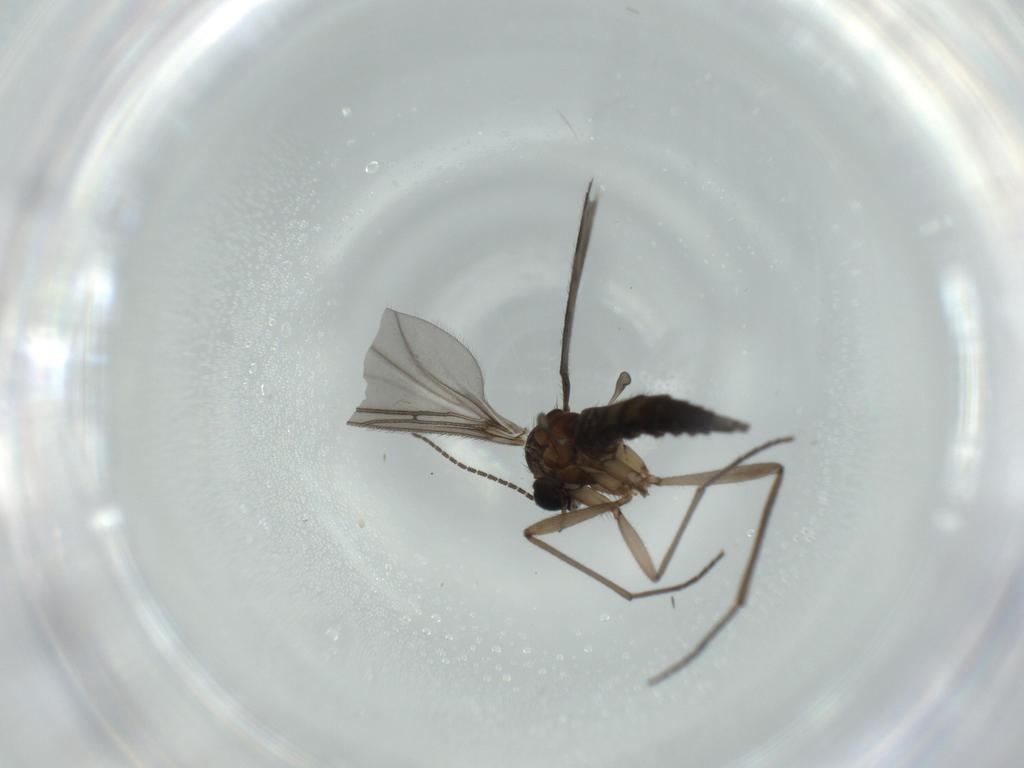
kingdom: Animalia
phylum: Arthropoda
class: Insecta
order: Diptera
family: Sciaridae
